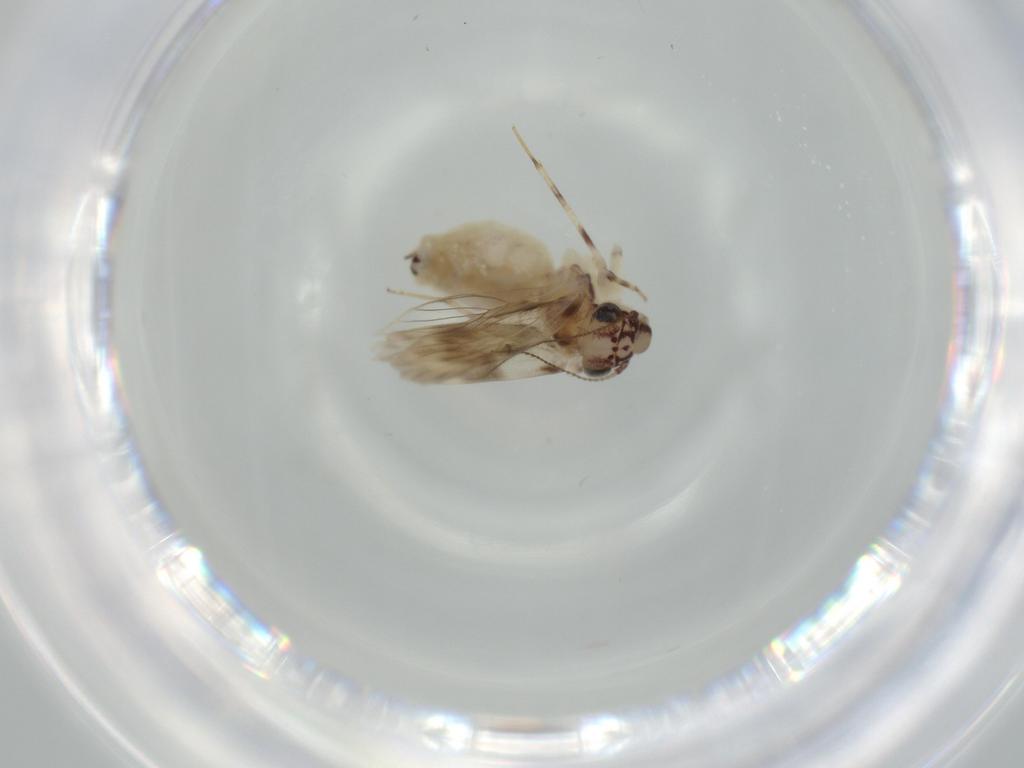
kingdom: Animalia
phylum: Arthropoda
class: Insecta
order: Psocodea
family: Lepidopsocidae
